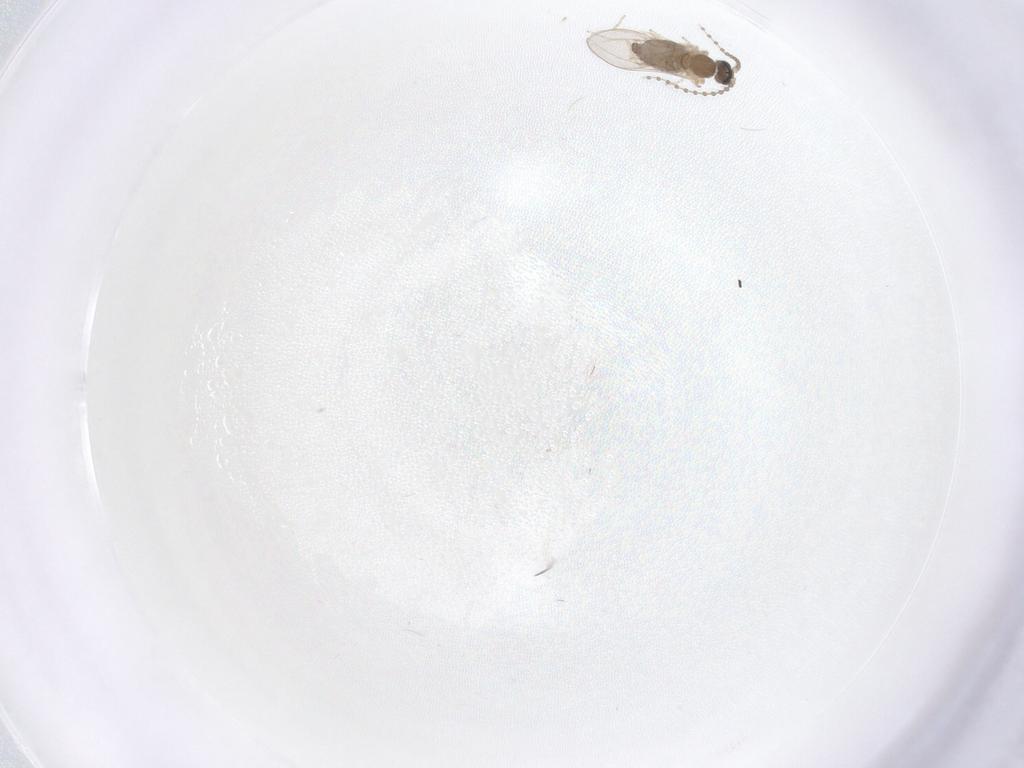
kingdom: Animalia
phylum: Arthropoda
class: Insecta
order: Diptera
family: Cecidomyiidae
